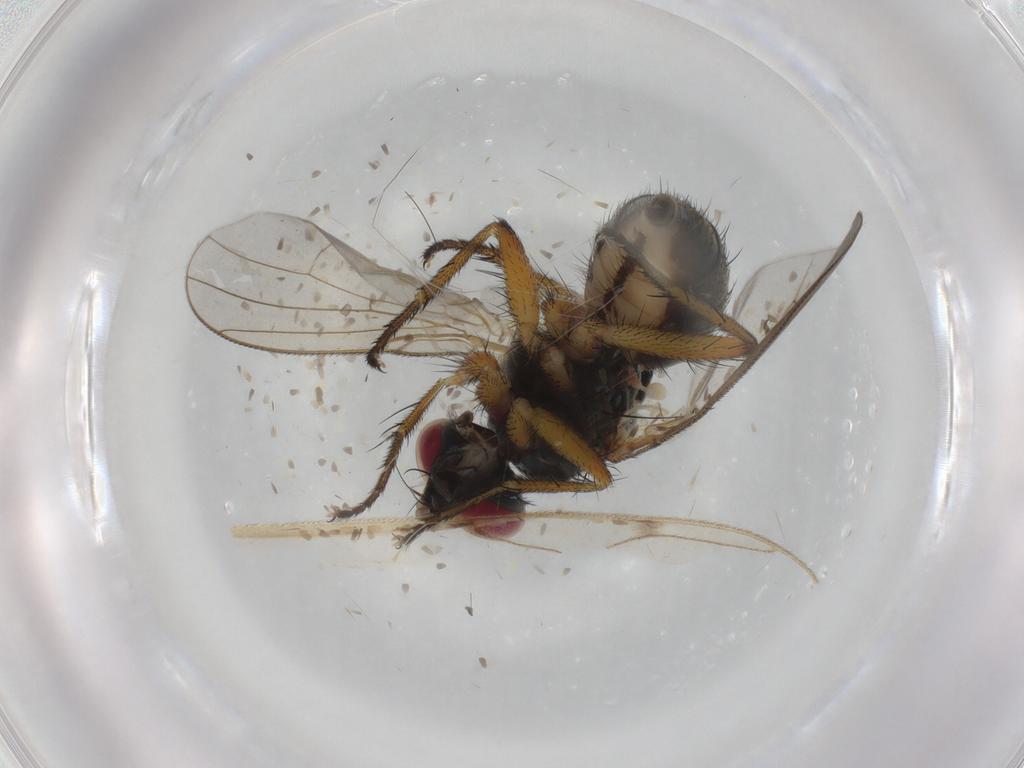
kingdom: Animalia
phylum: Arthropoda
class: Insecta
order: Diptera
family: Muscidae
